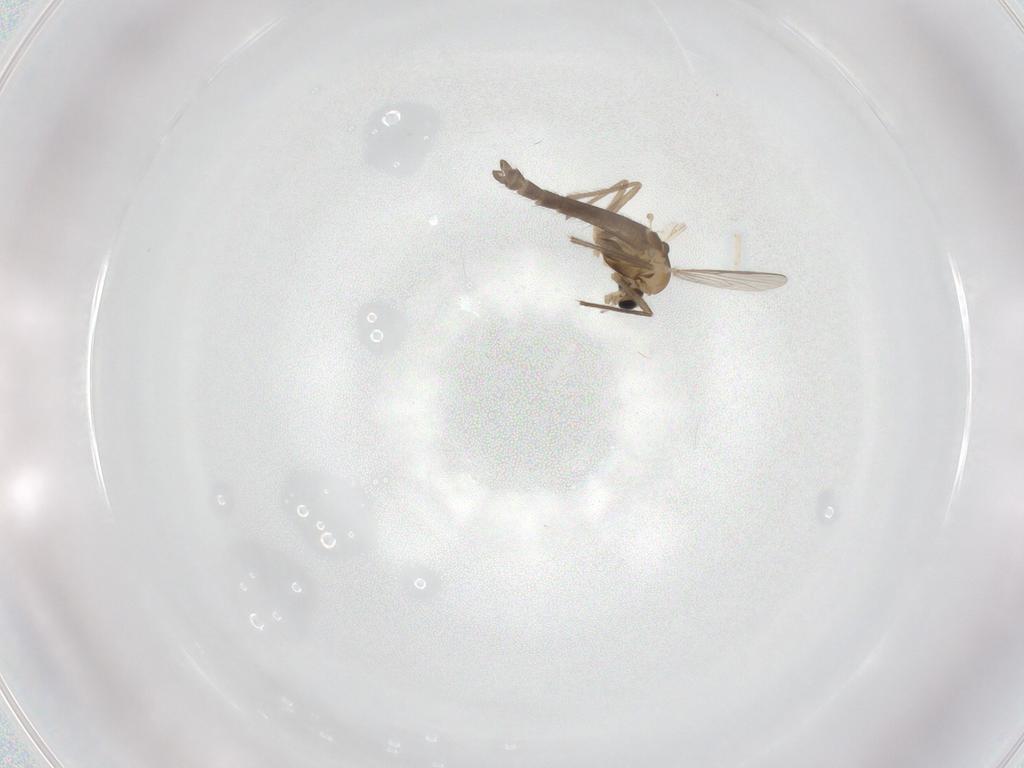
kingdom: Animalia
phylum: Arthropoda
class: Insecta
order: Diptera
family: Chironomidae
